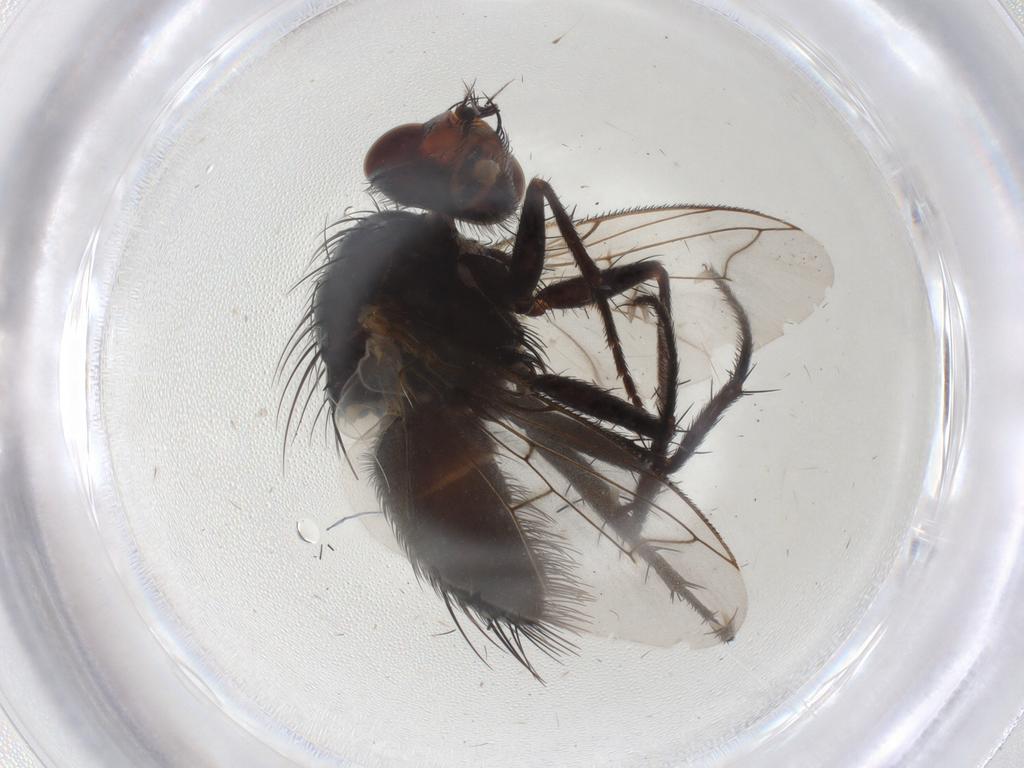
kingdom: Animalia
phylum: Arthropoda
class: Insecta
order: Diptera
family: Tachinidae
